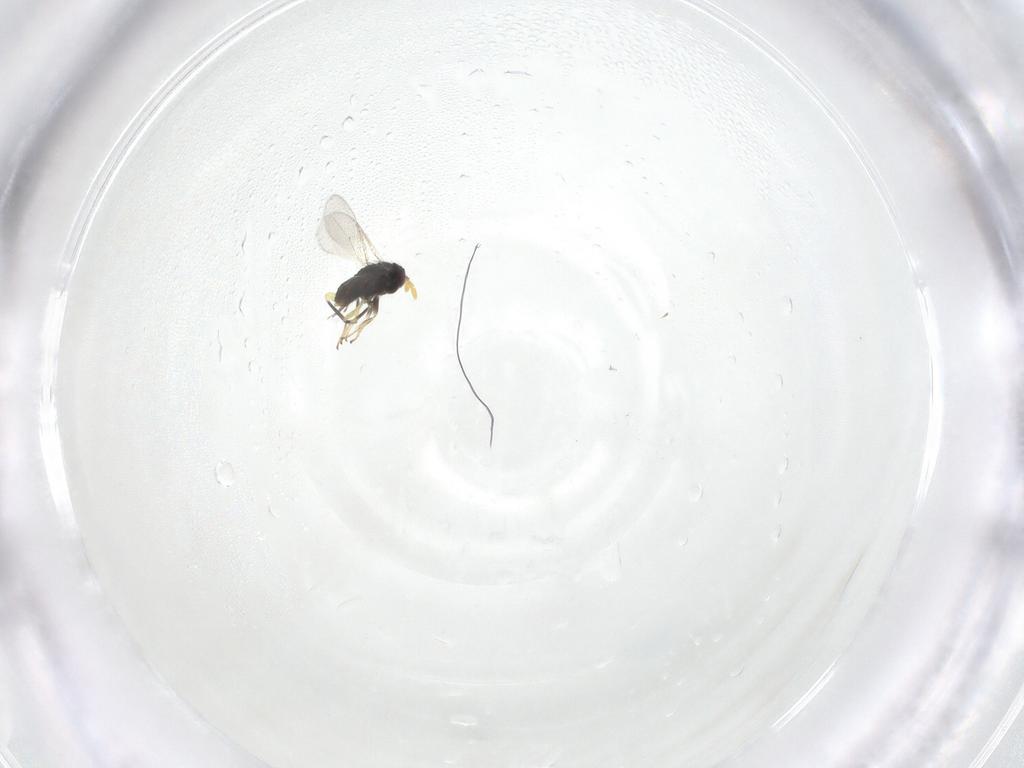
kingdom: Animalia
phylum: Arthropoda
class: Insecta
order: Hymenoptera
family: Aphelinidae
